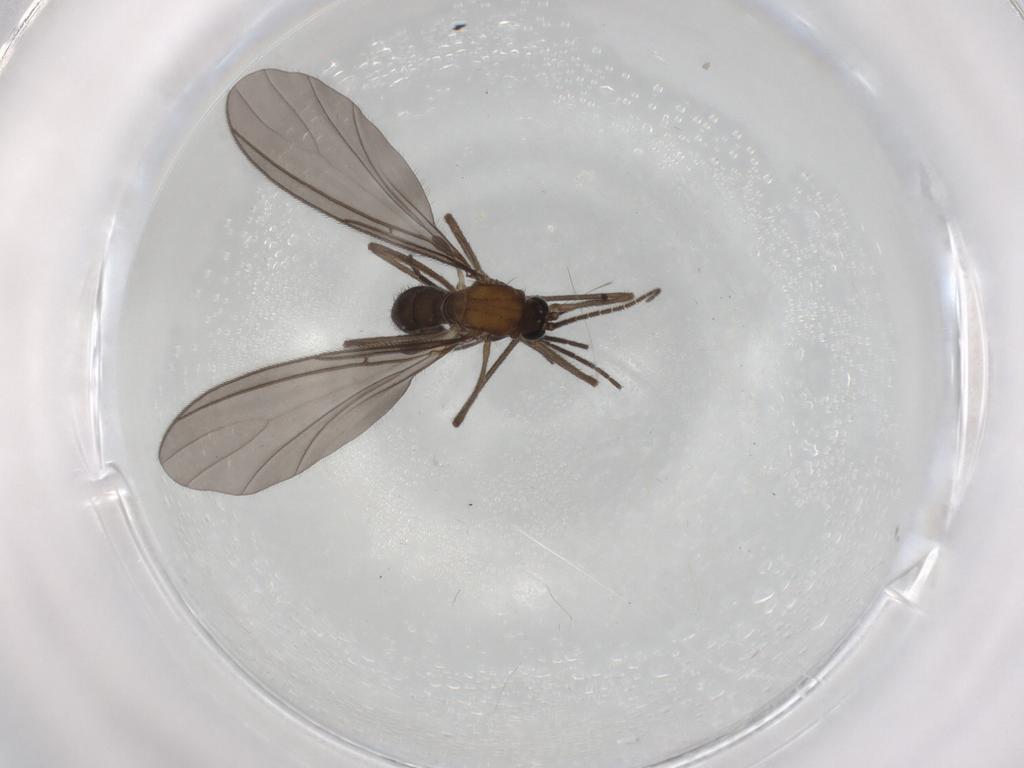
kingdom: Animalia
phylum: Arthropoda
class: Insecta
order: Diptera
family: Sciaridae
